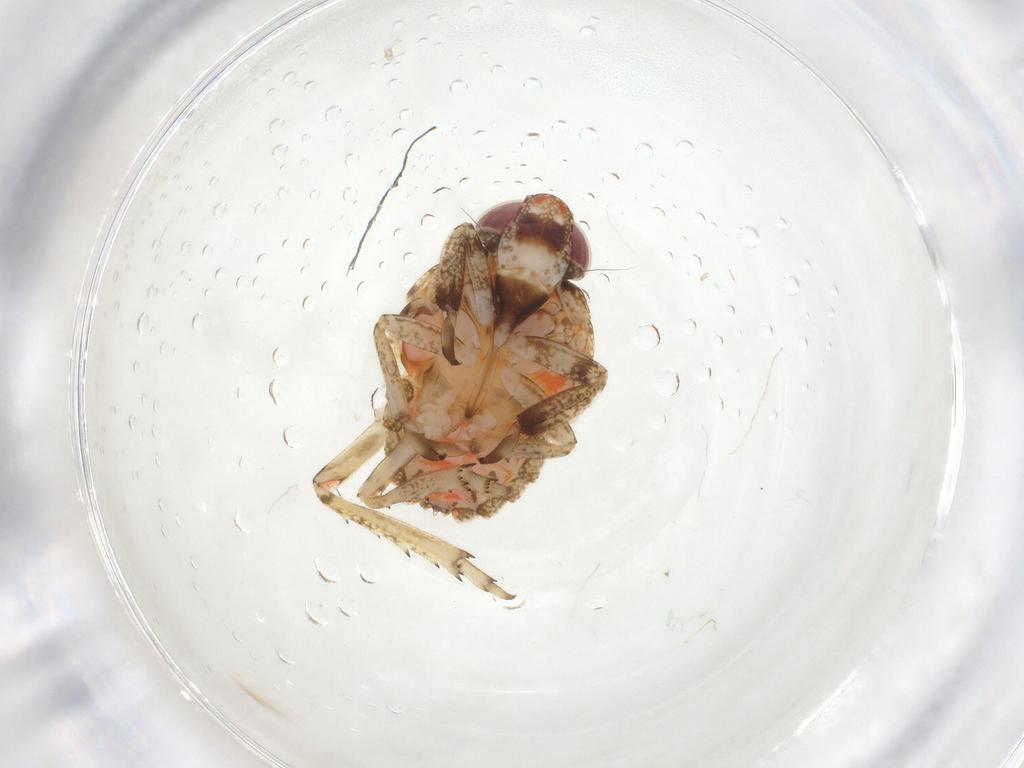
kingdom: Animalia
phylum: Arthropoda
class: Insecta
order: Hemiptera
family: Issidae
